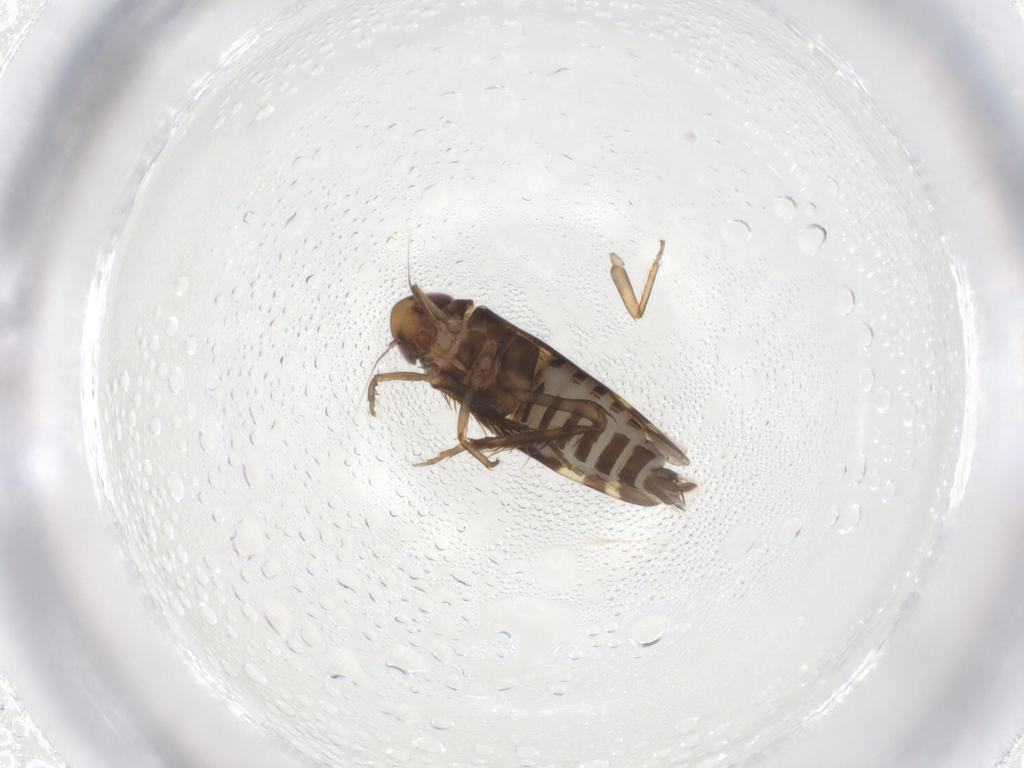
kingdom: Animalia
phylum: Arthropoda
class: Insecta
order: Hemiptera
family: Cicadellidae
